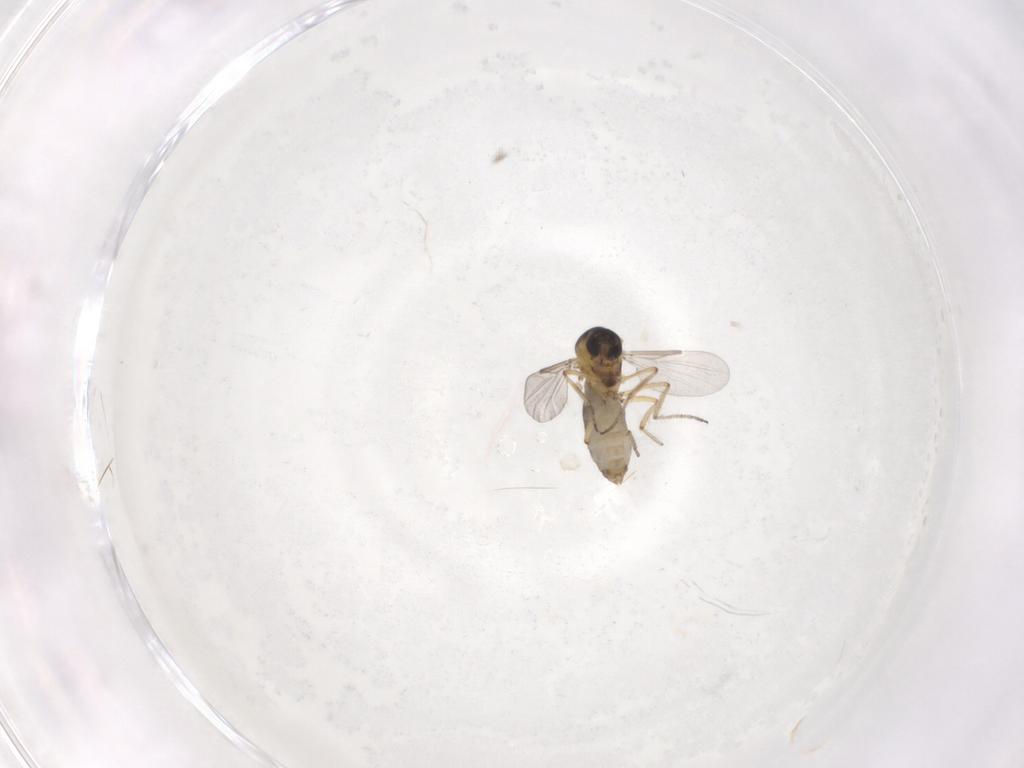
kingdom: Animalia
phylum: Arthropoda
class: Insecta
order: Diptera
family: Ceratopogonidae
